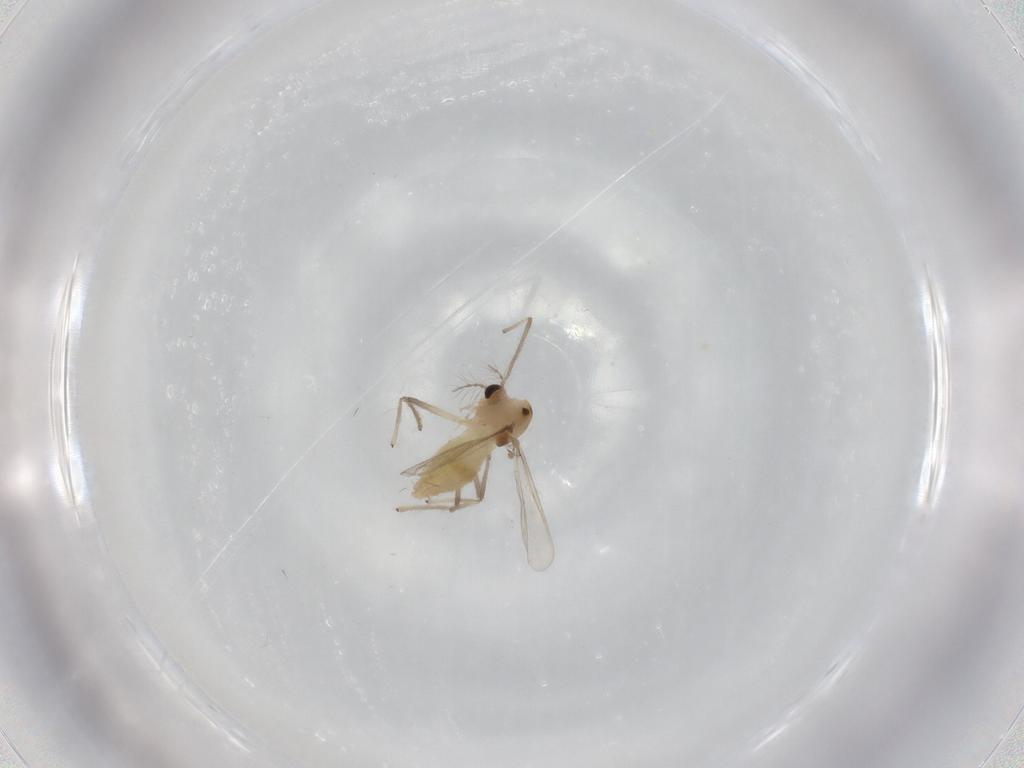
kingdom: Animalia
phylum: Arthropoda
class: Insecta
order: Diptera
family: Chironomidae
